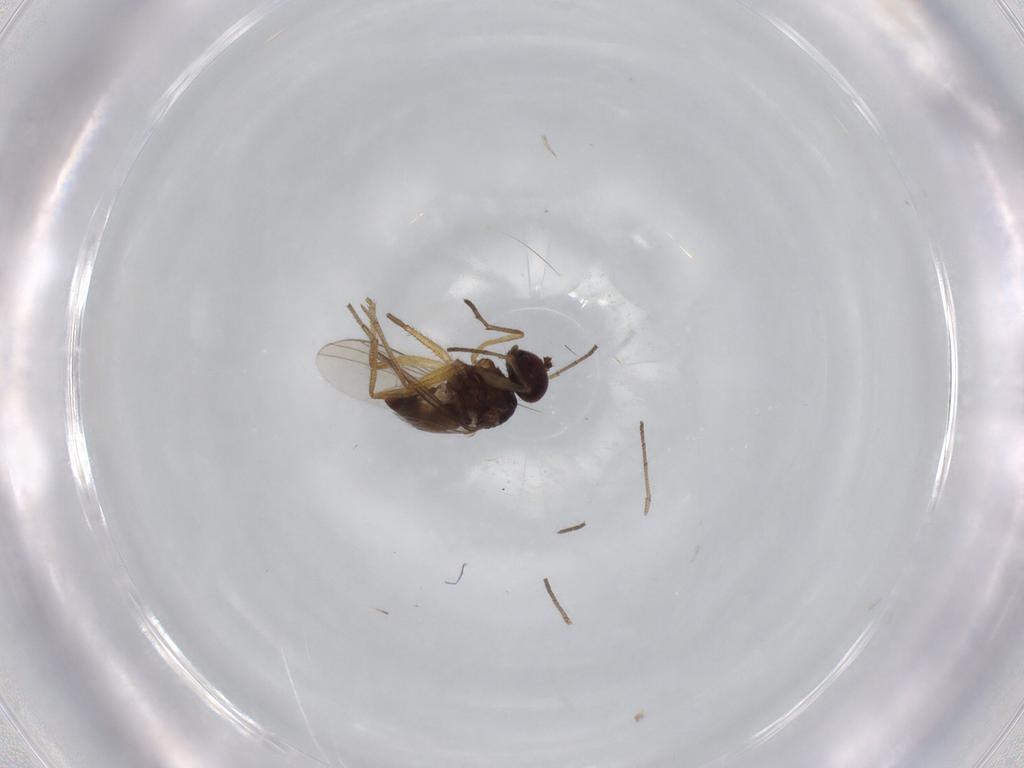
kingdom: Animalia
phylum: Arthropoda
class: Insecta
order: Diptera
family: Dolichopodidae
